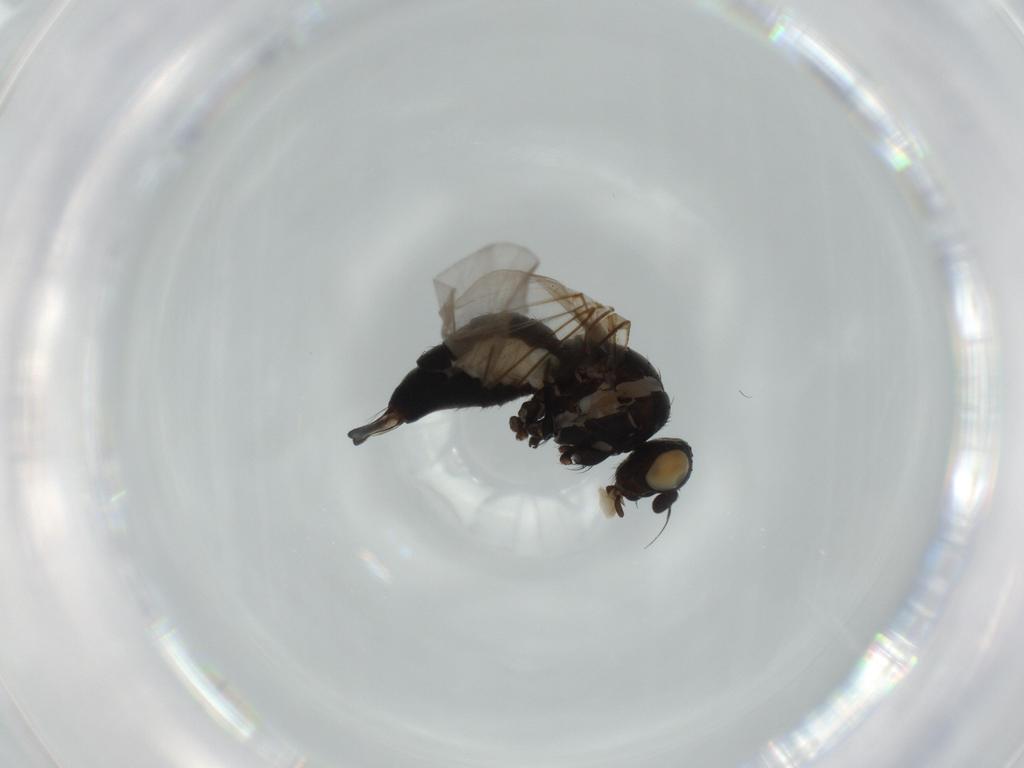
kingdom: Animalia
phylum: Arthropoda
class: Insecta
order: Diptera
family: Agromyzidae
